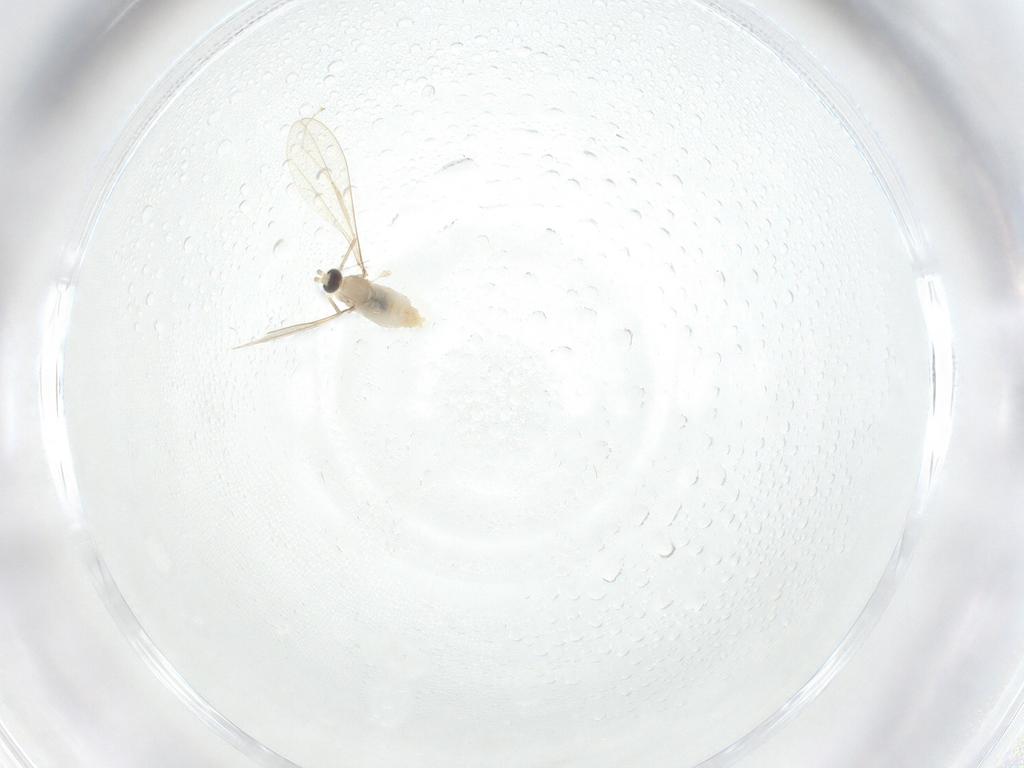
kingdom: Animalia
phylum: Arthropoda
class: Insecta
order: Diptera
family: Cecidomyiidae
